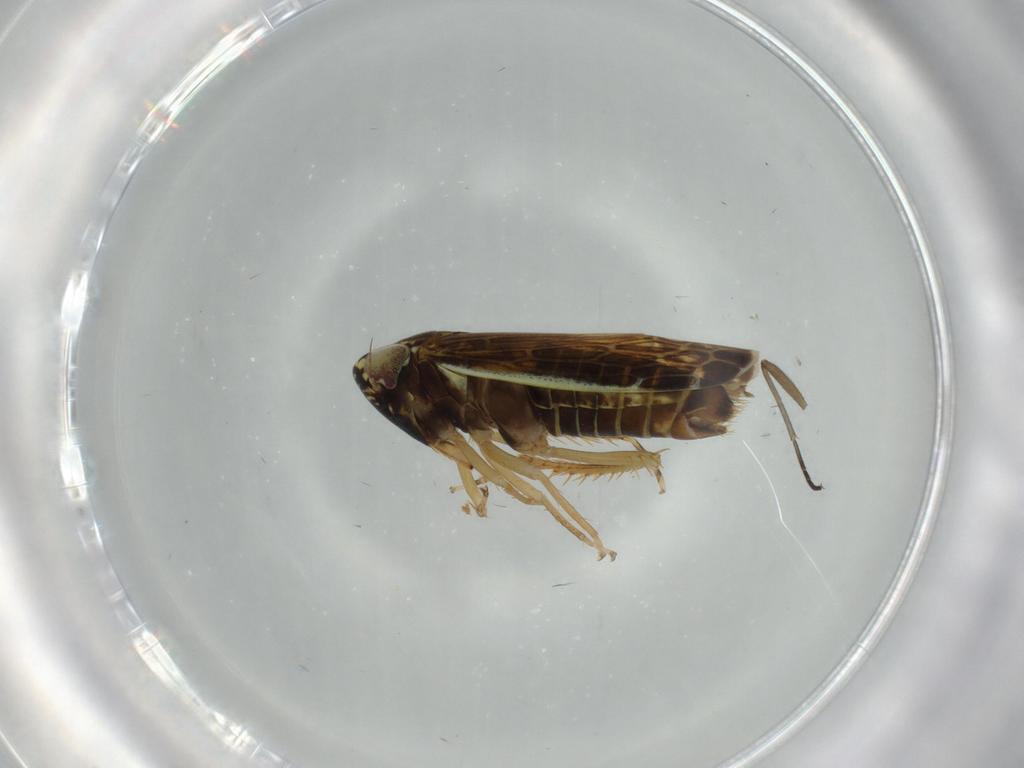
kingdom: Animalia
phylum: Arthropoda
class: Insecta
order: Hemiptera
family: Cicadellidae
